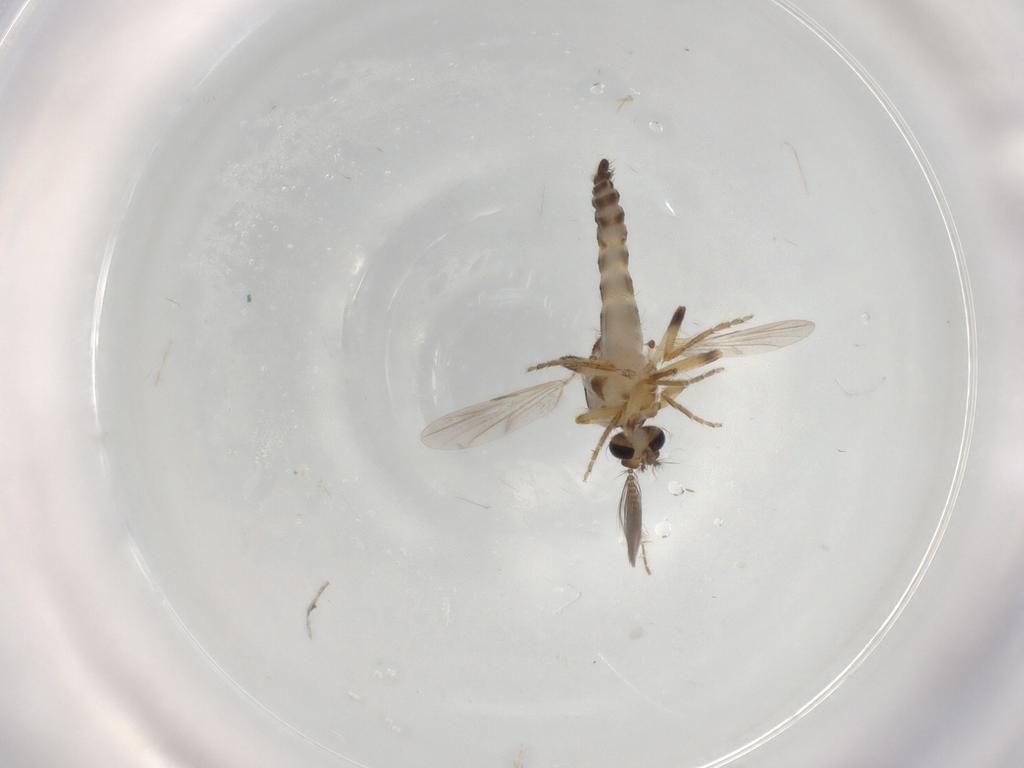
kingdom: Animalia
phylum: Arthropoda
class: Insecta
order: Diptera
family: Ceratopogonidae
